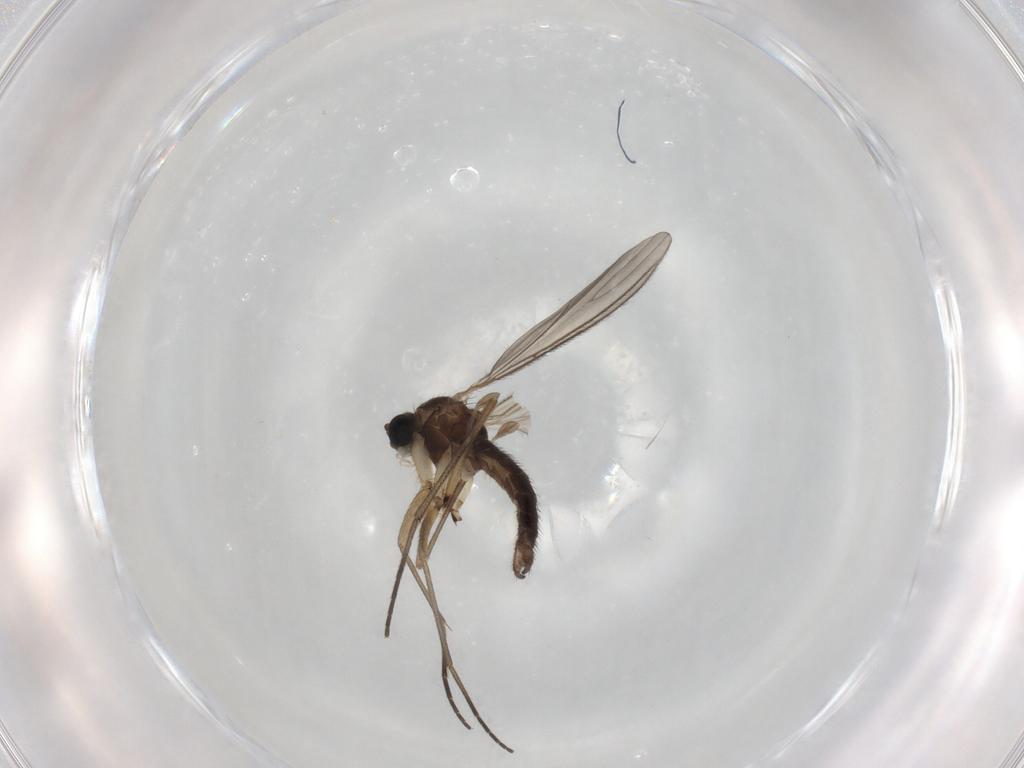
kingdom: Animalia
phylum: Arthropoda
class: Insecta
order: Diptera
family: Sciaridae
